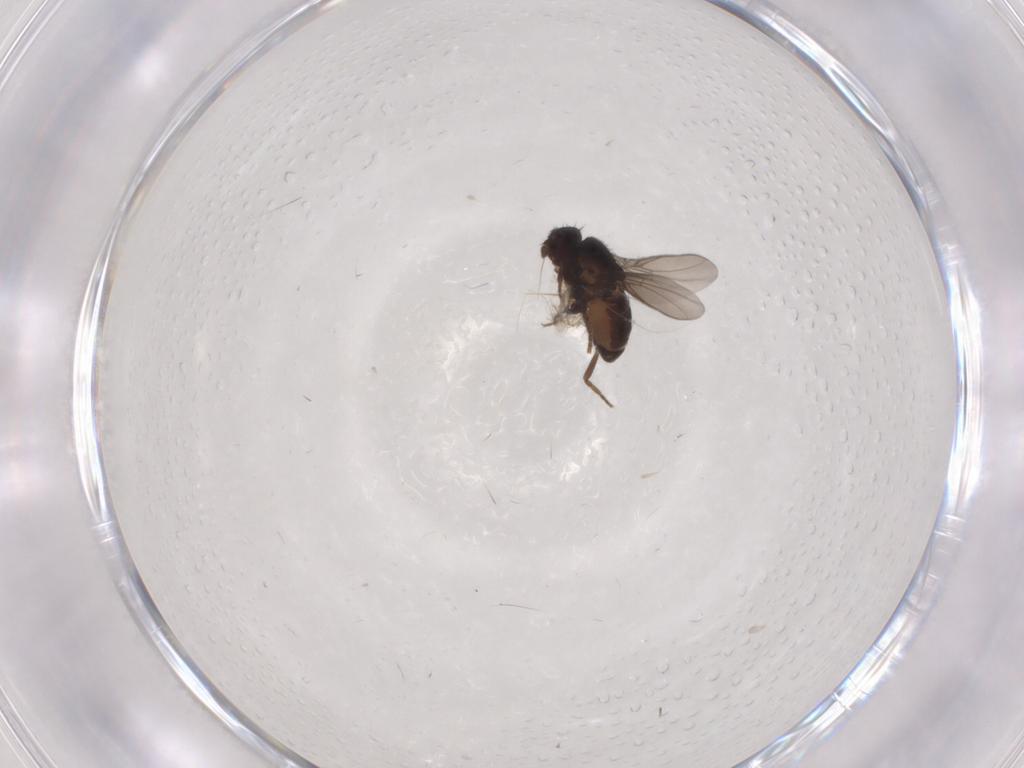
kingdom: Animalia
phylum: Arthropoda
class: Insecta
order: Diptera
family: Sphaeroceridae
